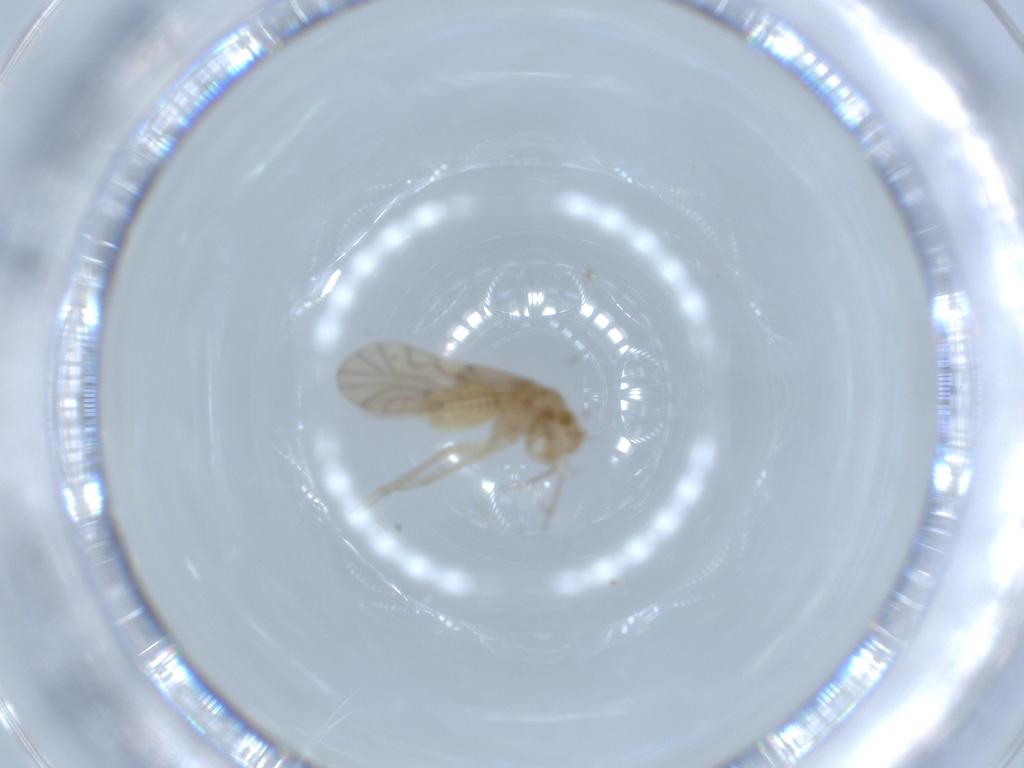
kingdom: Animalia
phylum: Arthropoda
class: Insecta
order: Psocodea
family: Lachesillidae
